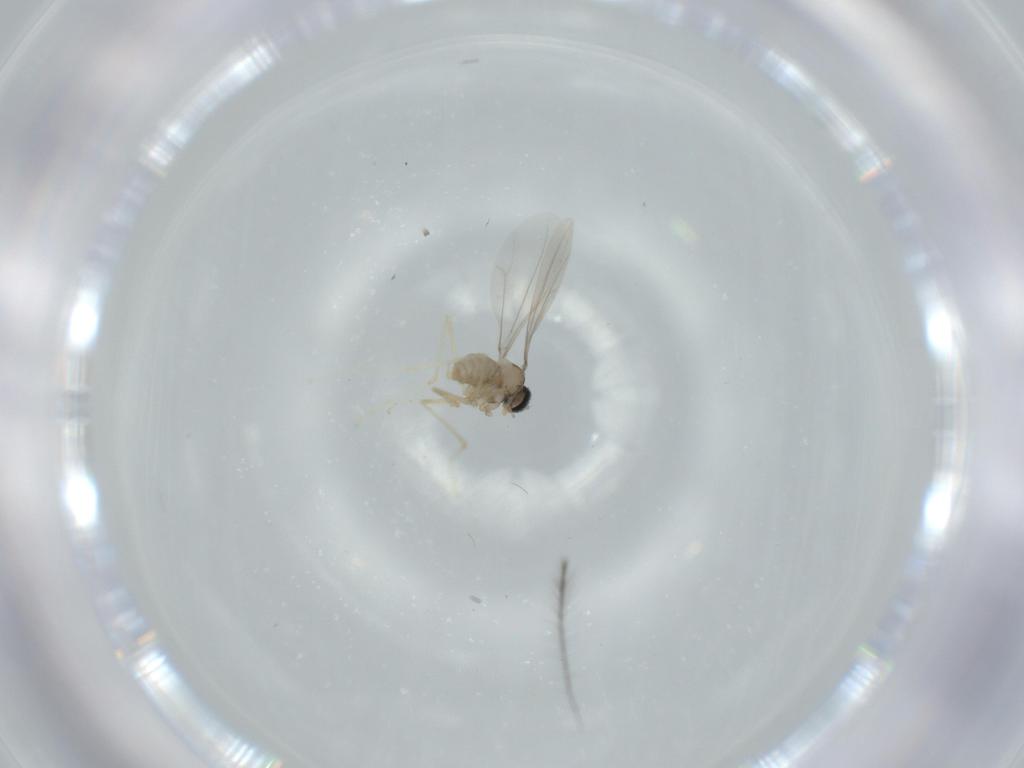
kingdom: Animalia
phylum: Arthropoda
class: Insecta
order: Diptera
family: Cecidomyiidae
